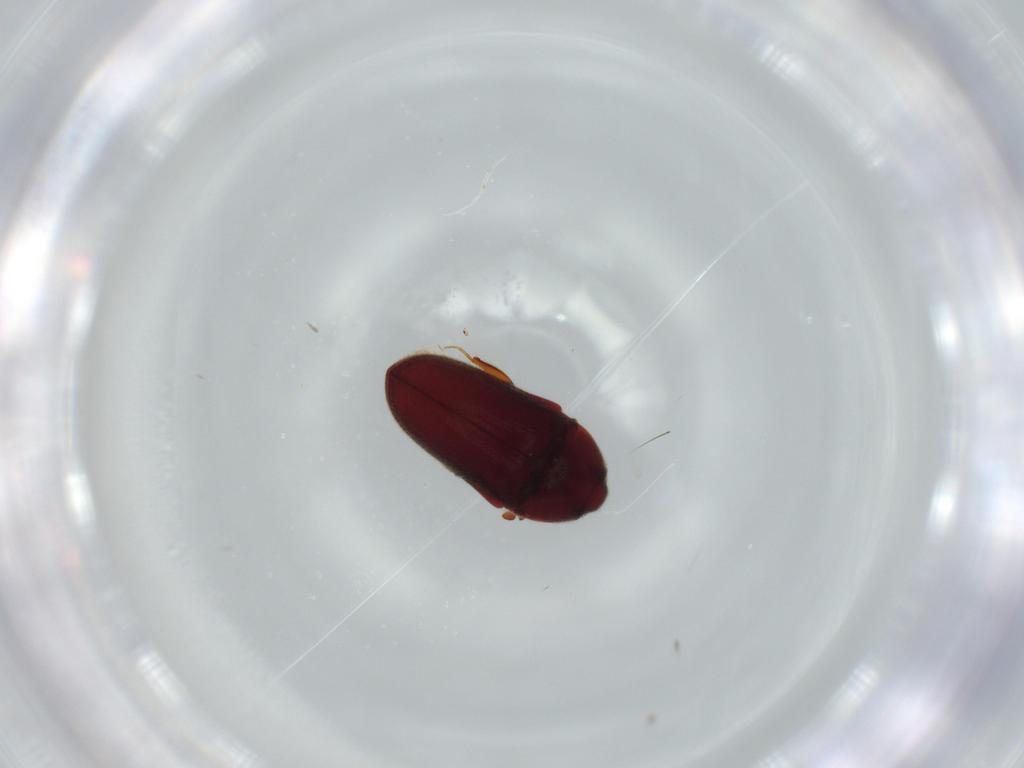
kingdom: Animalia
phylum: Arthropoda
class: Insecta
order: Coleoptera
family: Throscidae
